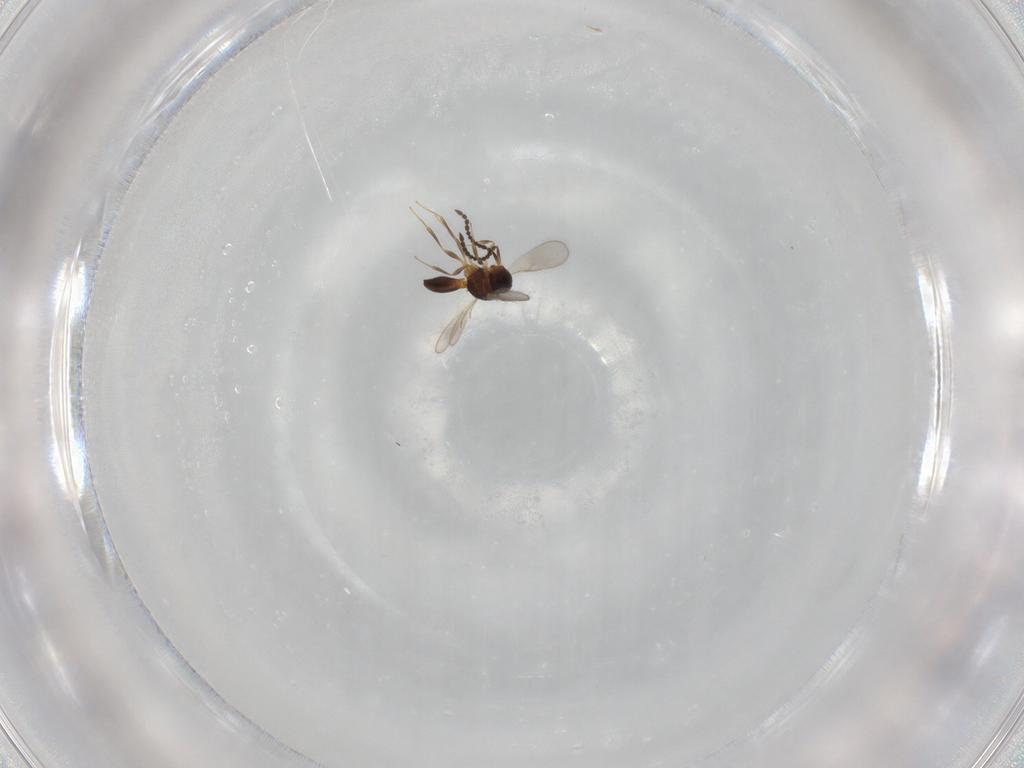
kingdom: Animalia
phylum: Arthropoda
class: Insecta
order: Hymenoptera
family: Scelionidae
